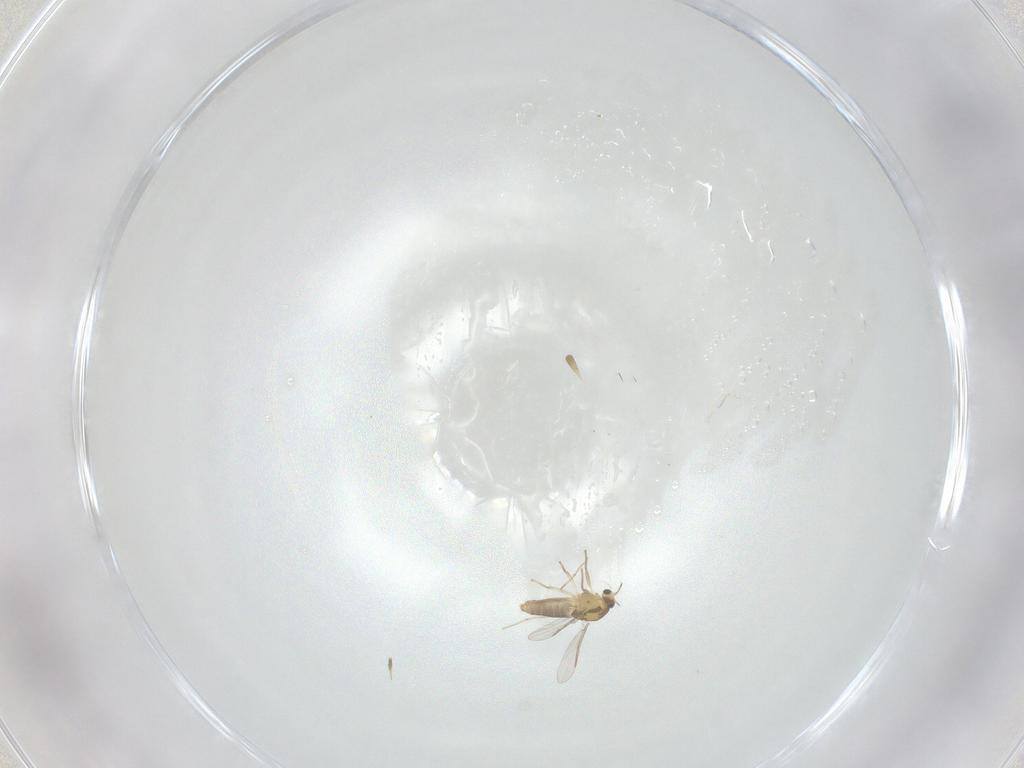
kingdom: Animalia
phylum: Arthropoda
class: Insecta
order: Diptera
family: Chironomidae
